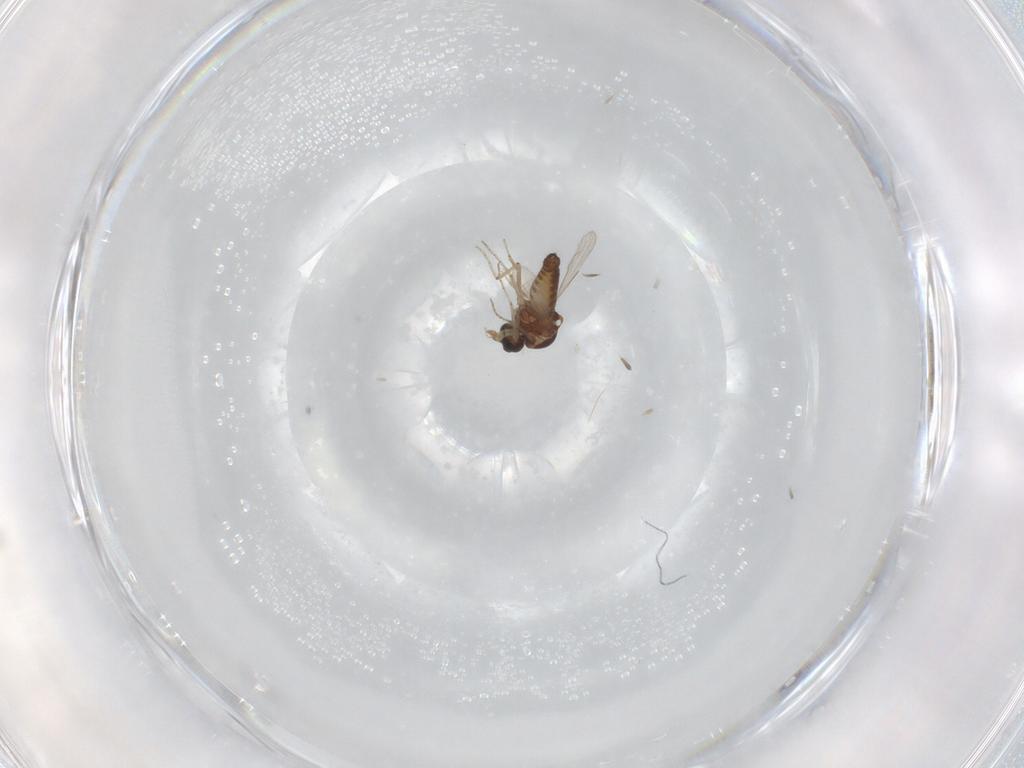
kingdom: Animalia
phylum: Arthropoda
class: Insecta
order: Diptera
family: Ceratopogonidae
